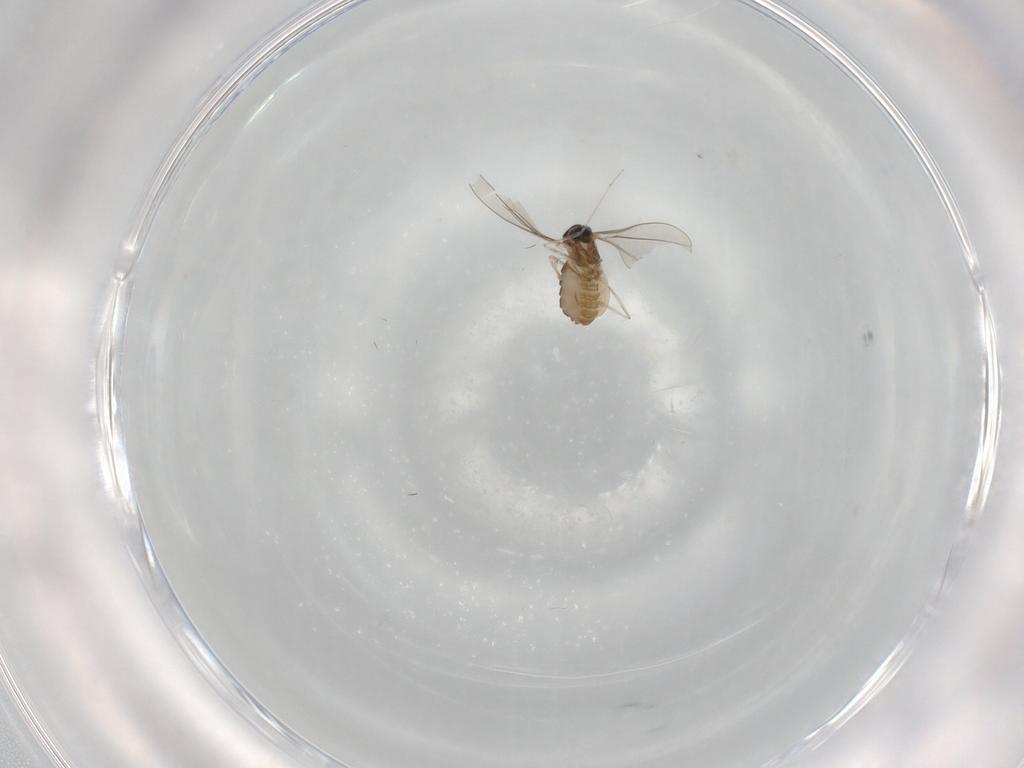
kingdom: Animalia
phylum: Arthropoda
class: Insecta
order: Diptera
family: Cecidomyiidae
